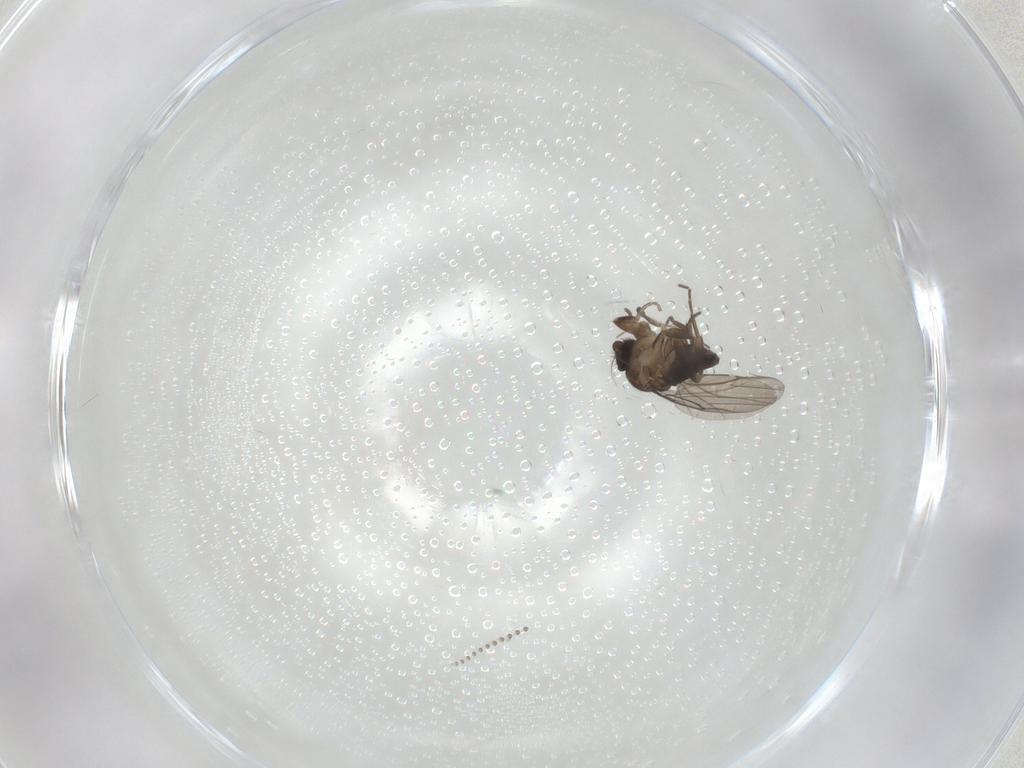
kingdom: Animalia
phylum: Arthropoda
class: Insecta
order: Diptera
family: Phoridae
